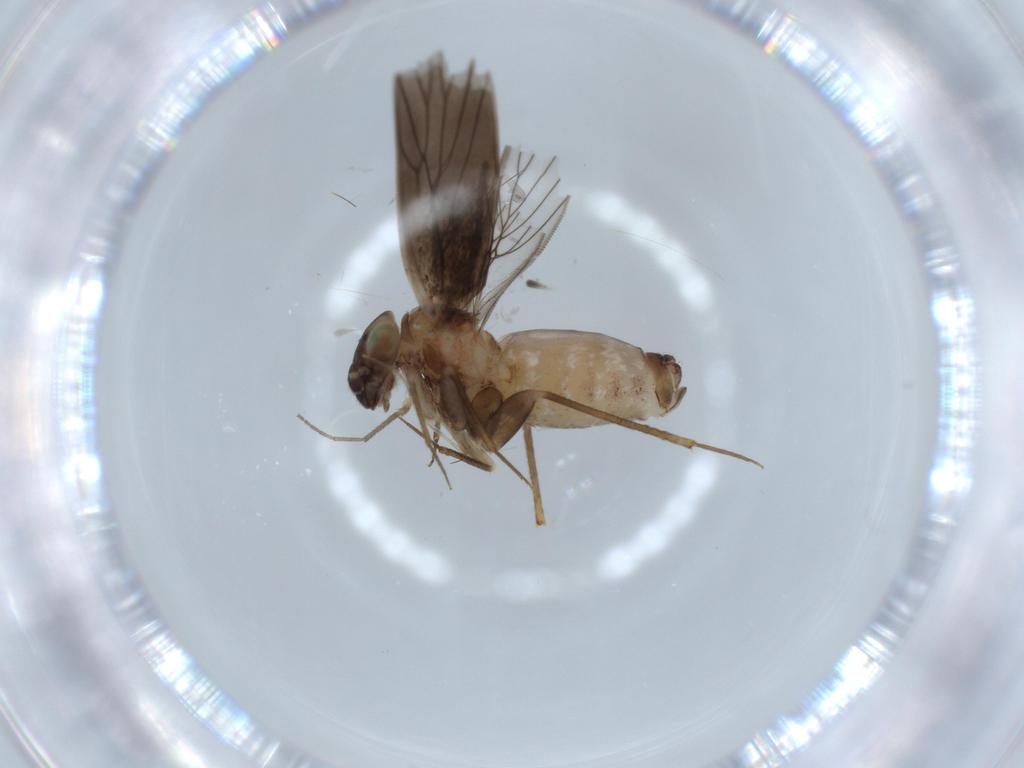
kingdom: Animalia
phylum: Arthropoda
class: Insecta
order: Psocodea
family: Lepidopsocidae
